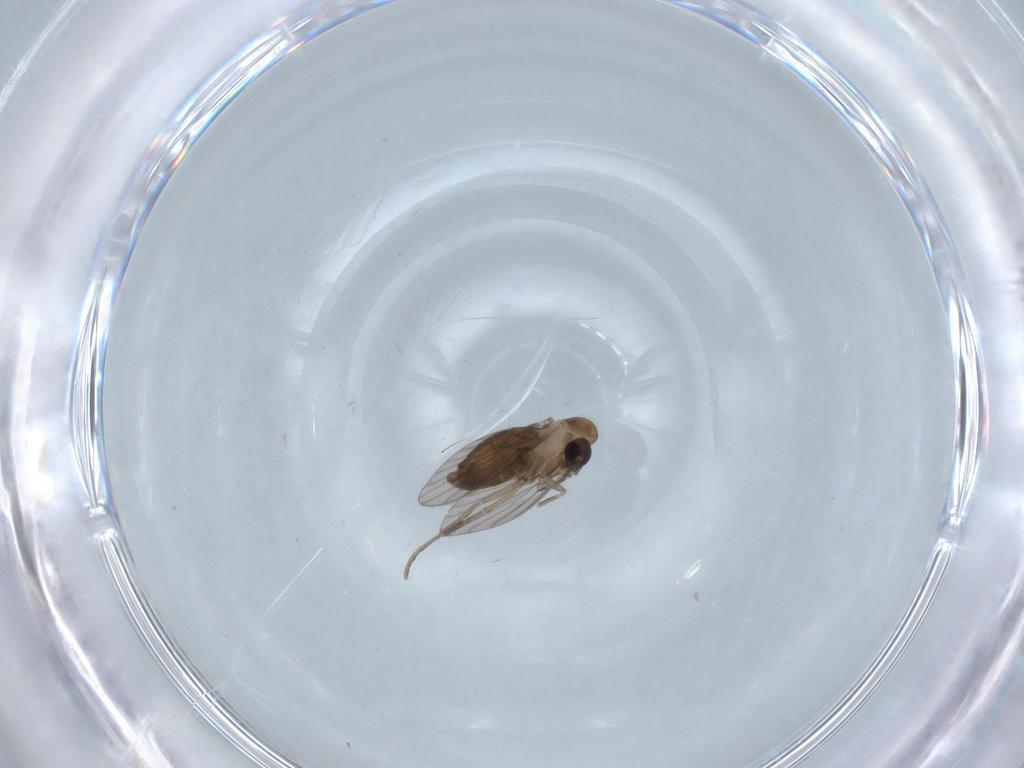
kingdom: Animalia
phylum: Arthropoda
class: Insecta
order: Diptera
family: Psychodidae
